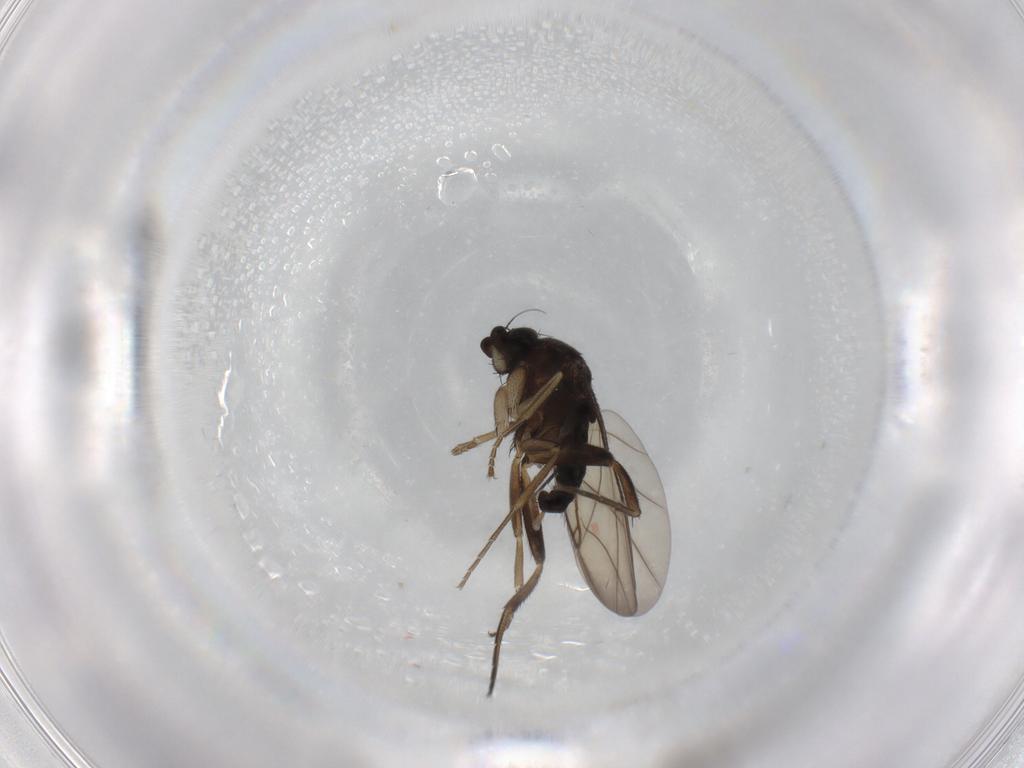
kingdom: Animalia
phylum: Arthropoda
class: Insecta
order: Diptera
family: Phoridae
